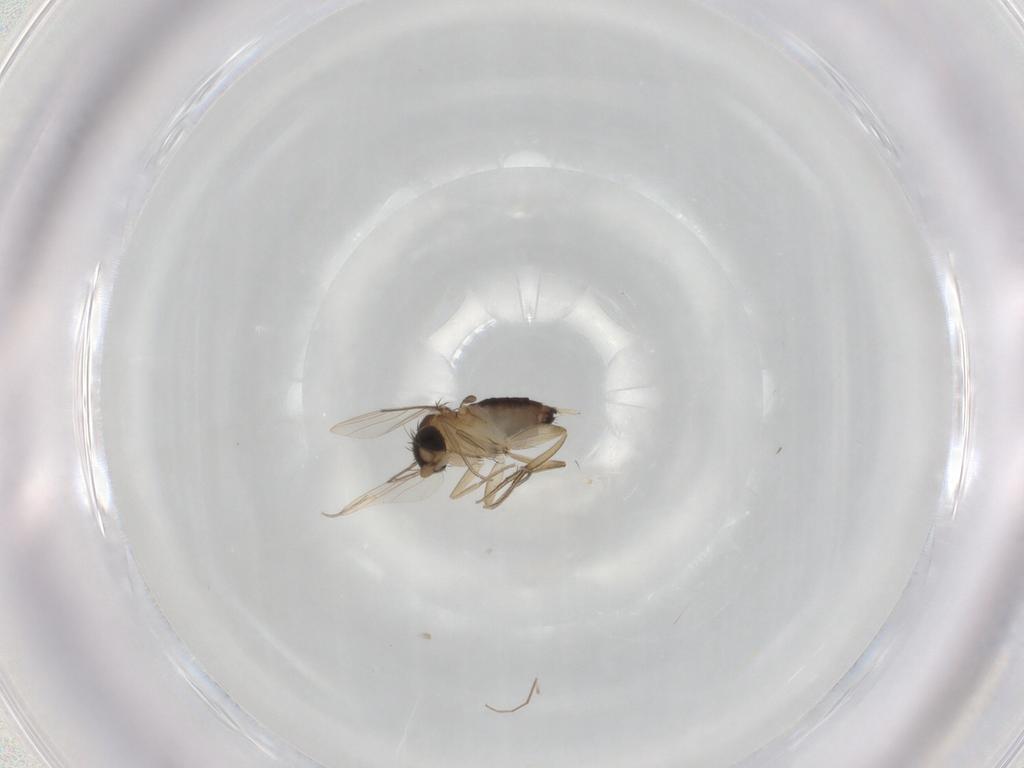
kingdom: Animalia
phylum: Arthropoda
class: Insecta
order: Diptera
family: Phoridae
